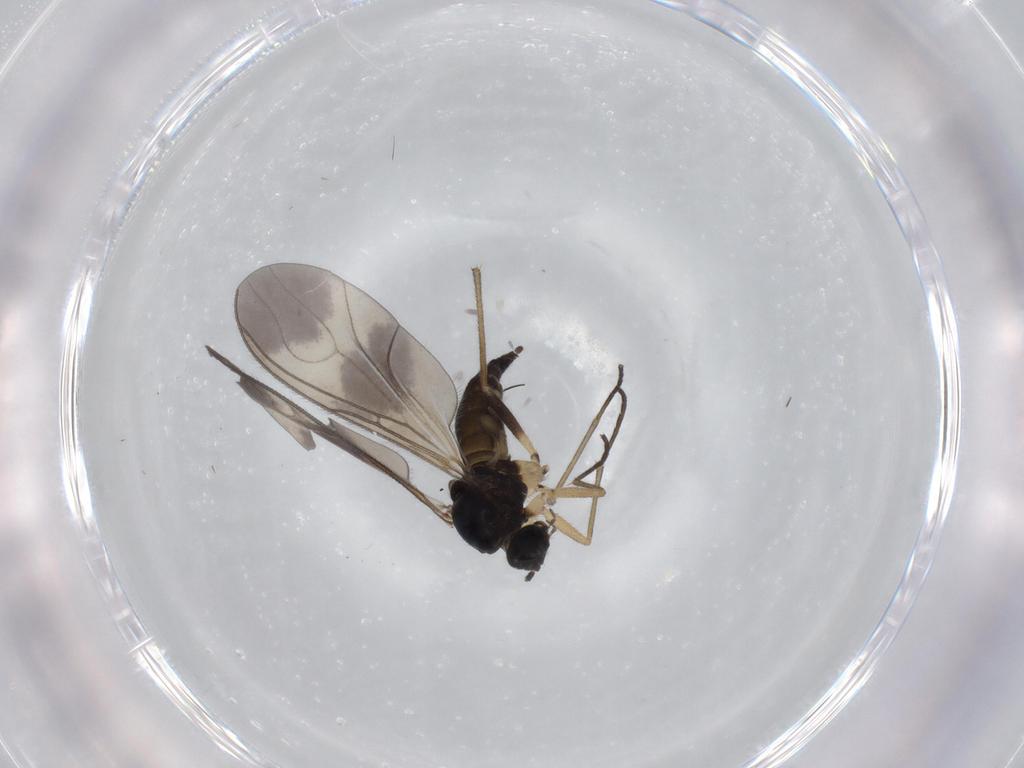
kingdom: Animalia
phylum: Arthropoda
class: Insecta
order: Diptera
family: Sciaridae
